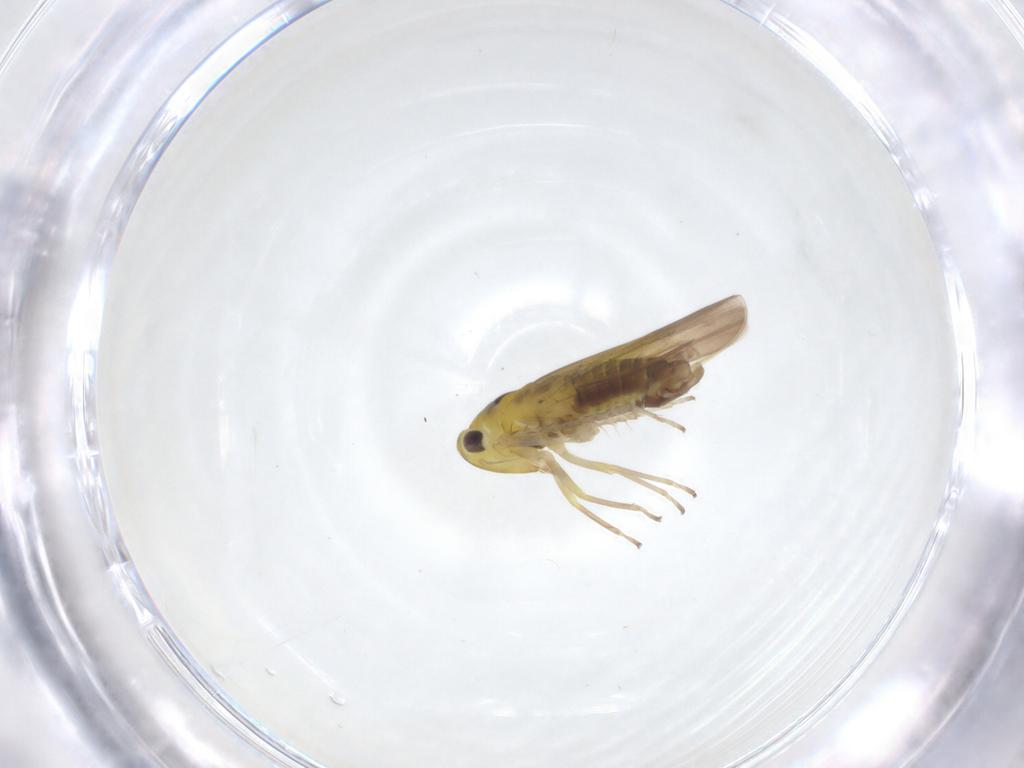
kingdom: Animalia
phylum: Arthropoda
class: Insecta
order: Hemiptera
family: Cicadellidae
